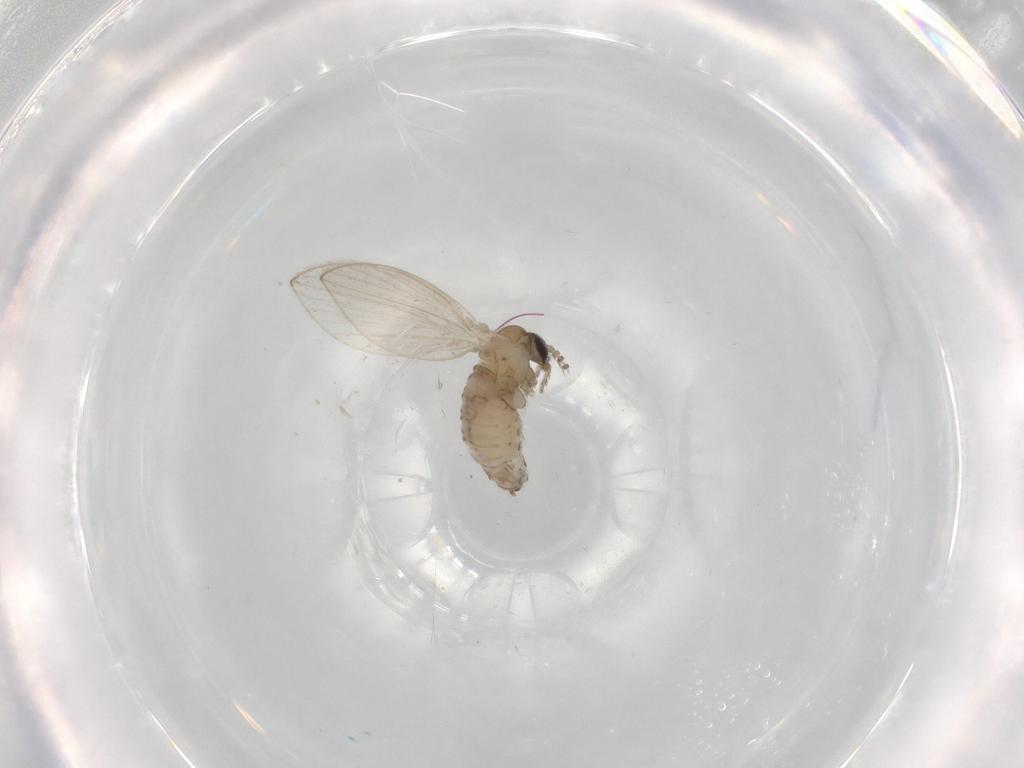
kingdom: Animalia
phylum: Arthropoda
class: Insecta
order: Diptera
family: Psychodidae
